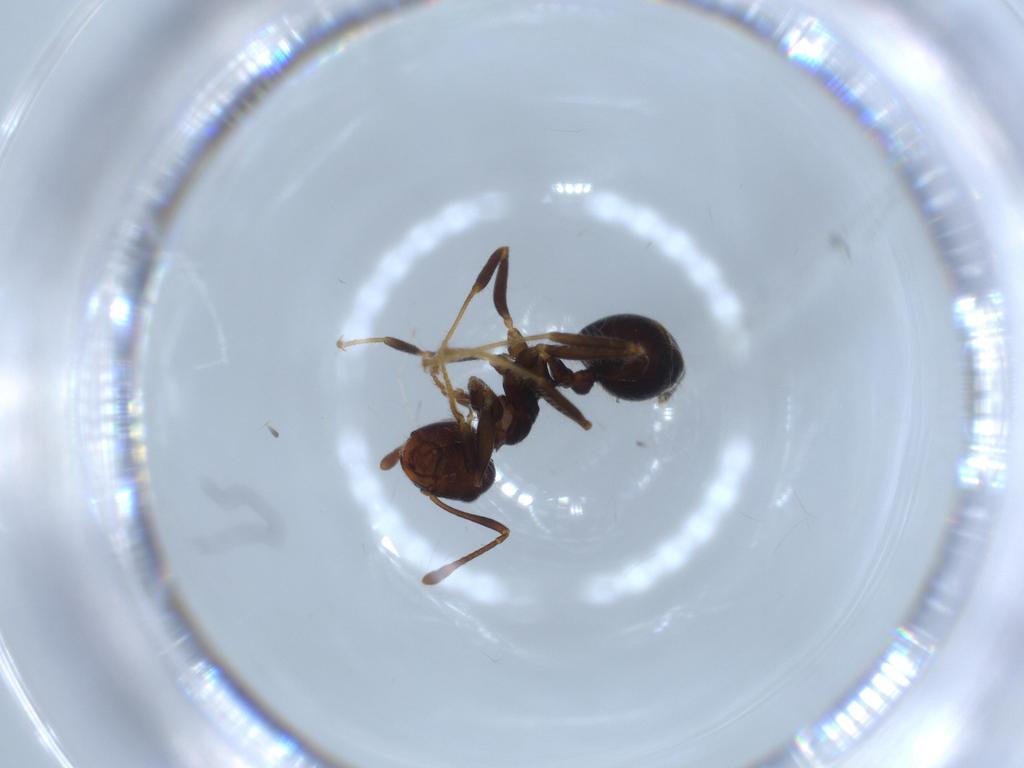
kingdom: Animalia
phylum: Arthropoda
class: Insecta
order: Hymenoptera
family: Formicidae
